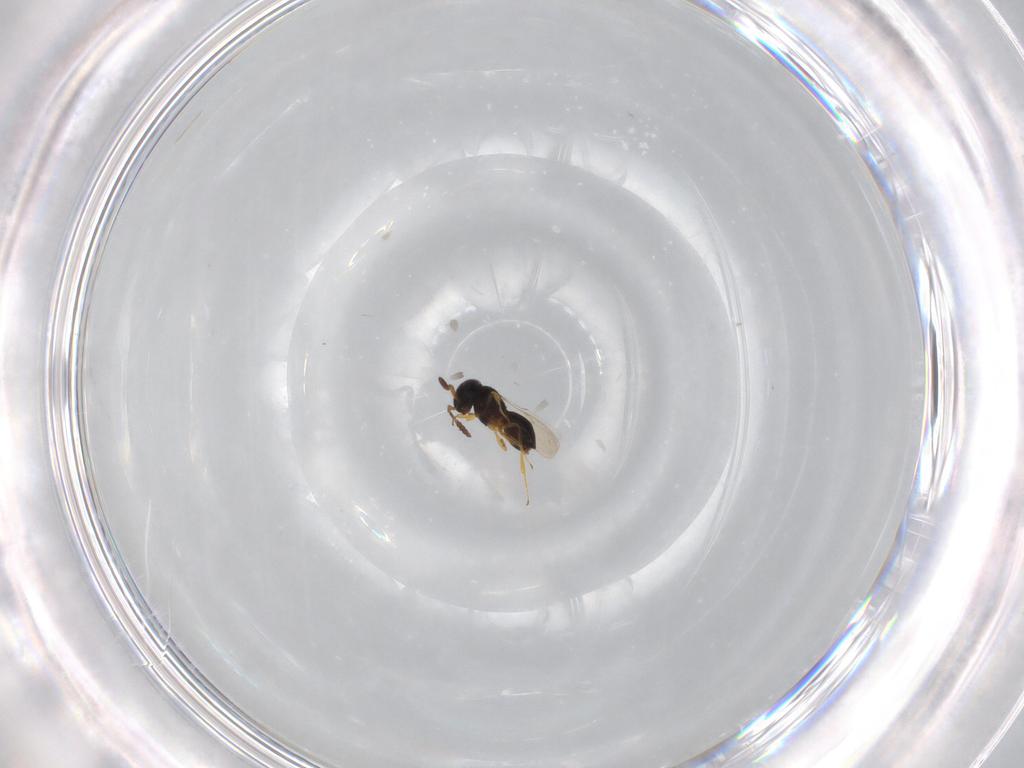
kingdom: Animalia
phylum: Arthropoda
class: Insecta
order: Hymenoptera
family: Scelionidae
